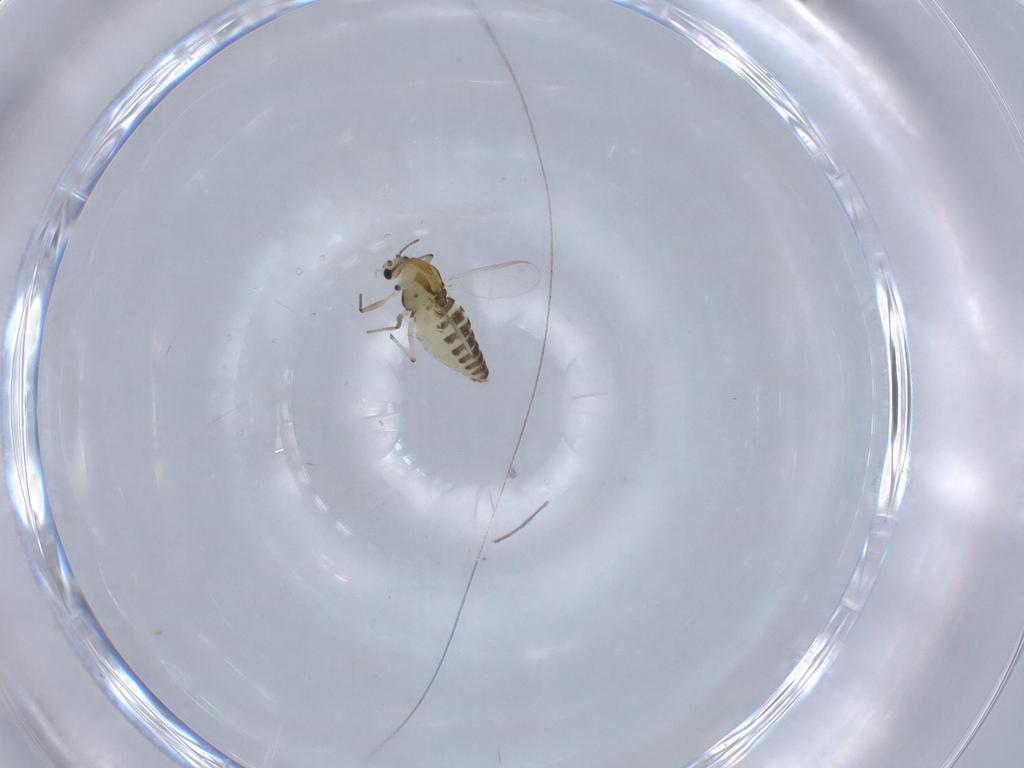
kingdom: Animalia
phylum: Arthropoda
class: Insecta
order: Diptera
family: Chironomidae
